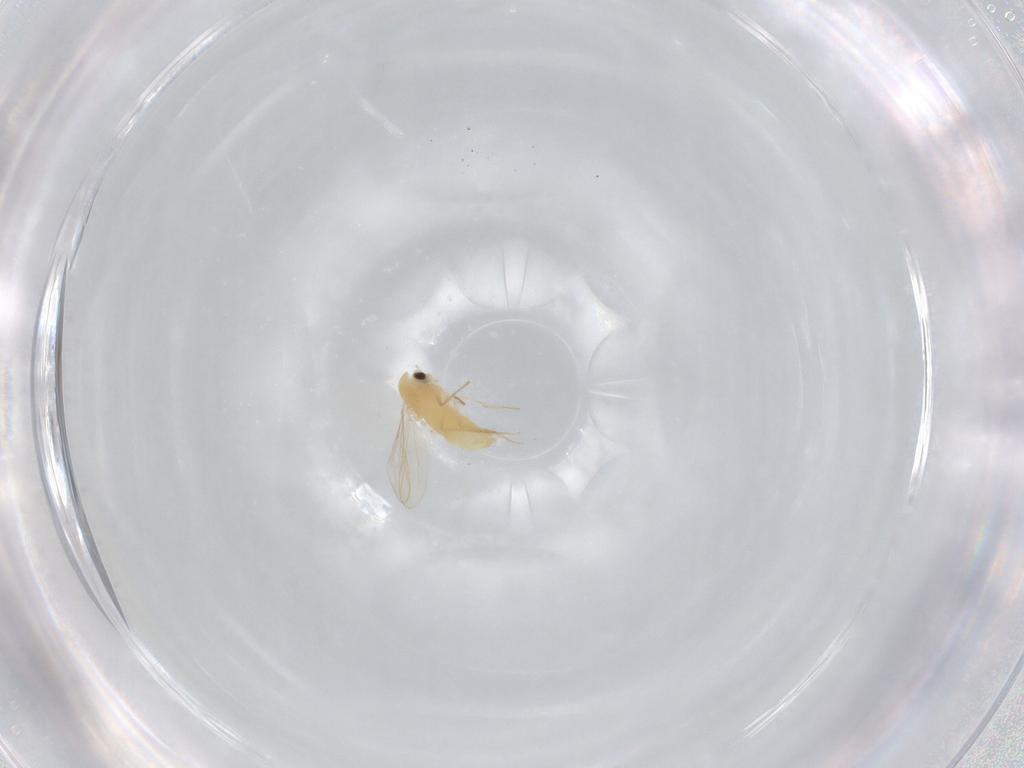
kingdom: Animalia
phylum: Arthropoda
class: Insecta
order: Diptera
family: Chironomidae
